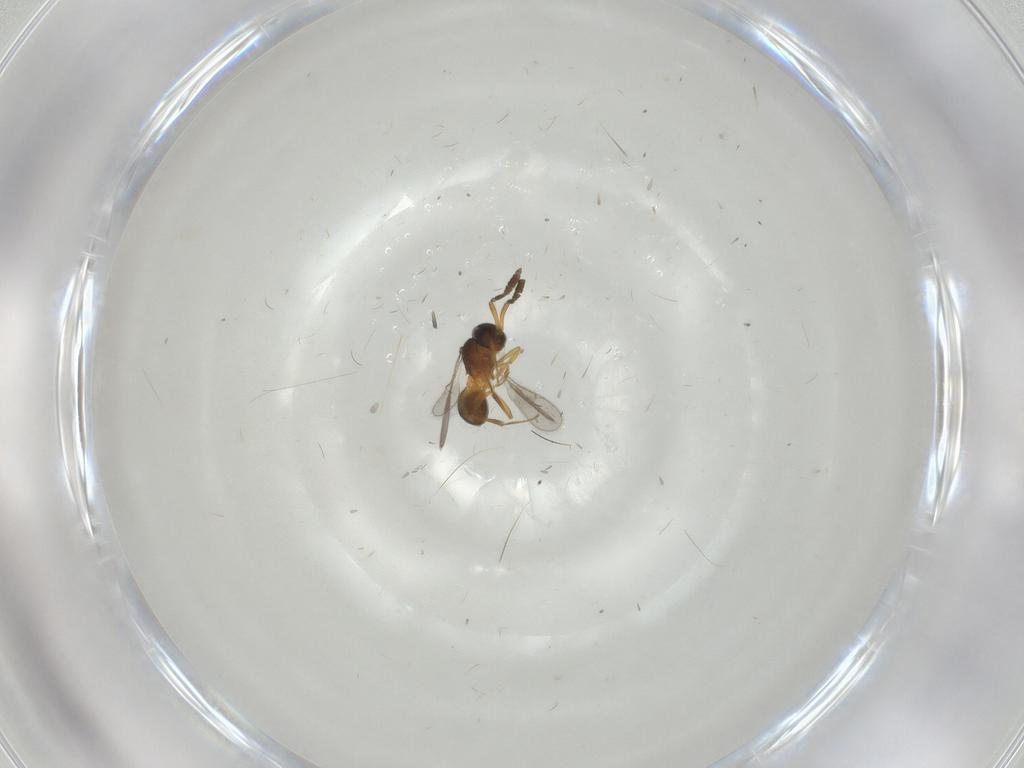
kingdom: Animalia
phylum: Arthropoda
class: Insecta
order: Hymenoptera
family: Scelionidae
